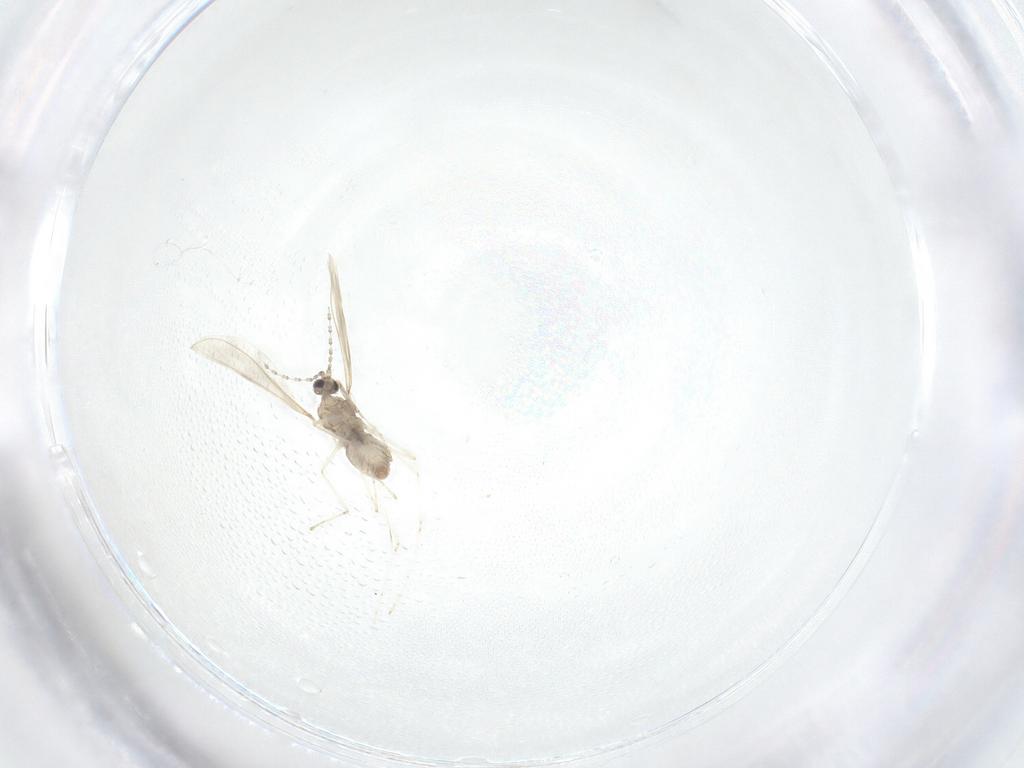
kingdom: Animalia
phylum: Arthropoda
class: Insecta
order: Diptera
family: Cecidomyiidae
